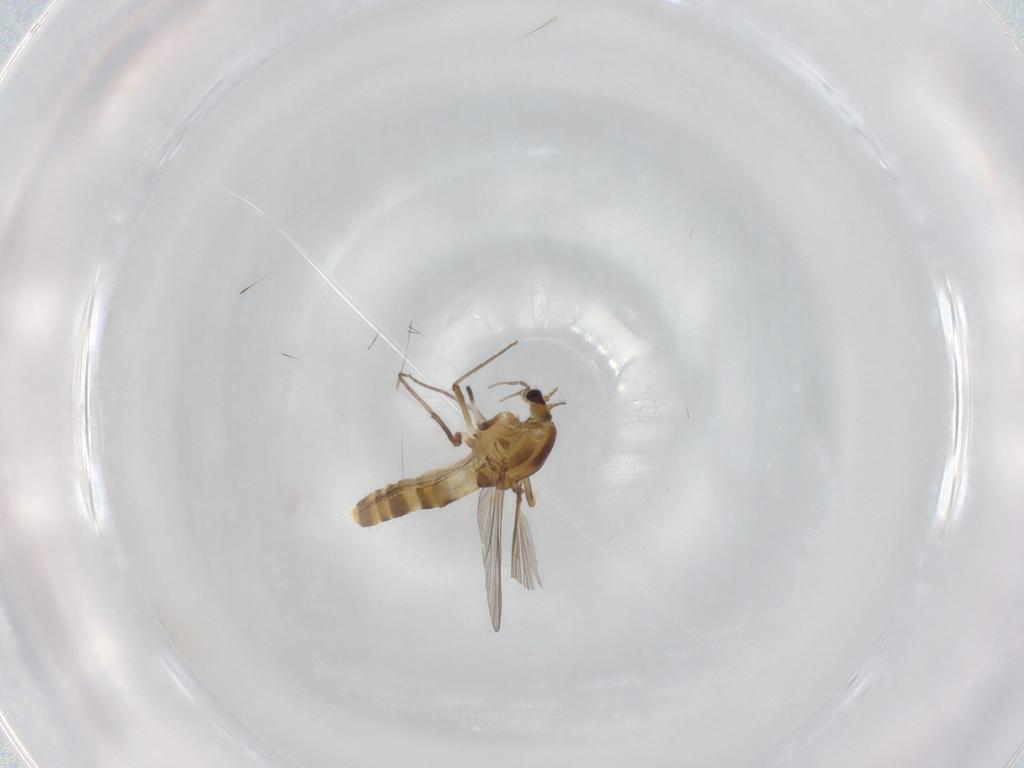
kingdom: Animalia
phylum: Arthropoda
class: Insecta
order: Diptera
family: Chironomidae
